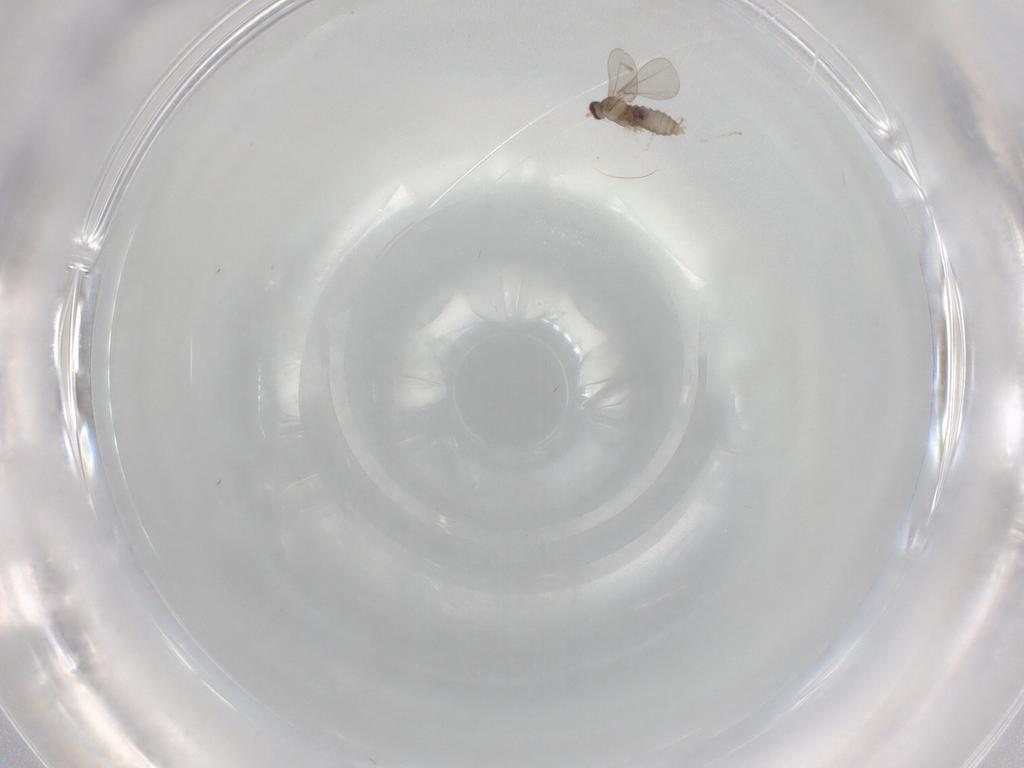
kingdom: Animalia
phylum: Arthropoda
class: Insecta
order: Diptera
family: Cecidomyiidae
